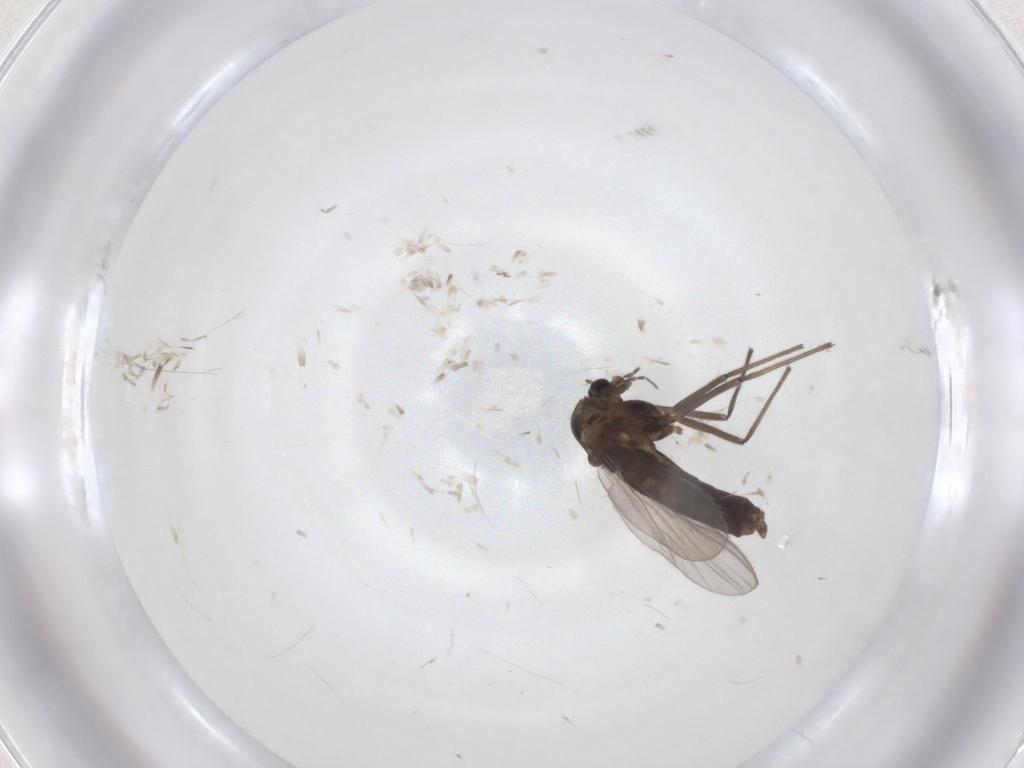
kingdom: Animalia
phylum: Arthropoda
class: Insecta
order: Diptera
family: Chironomidae
